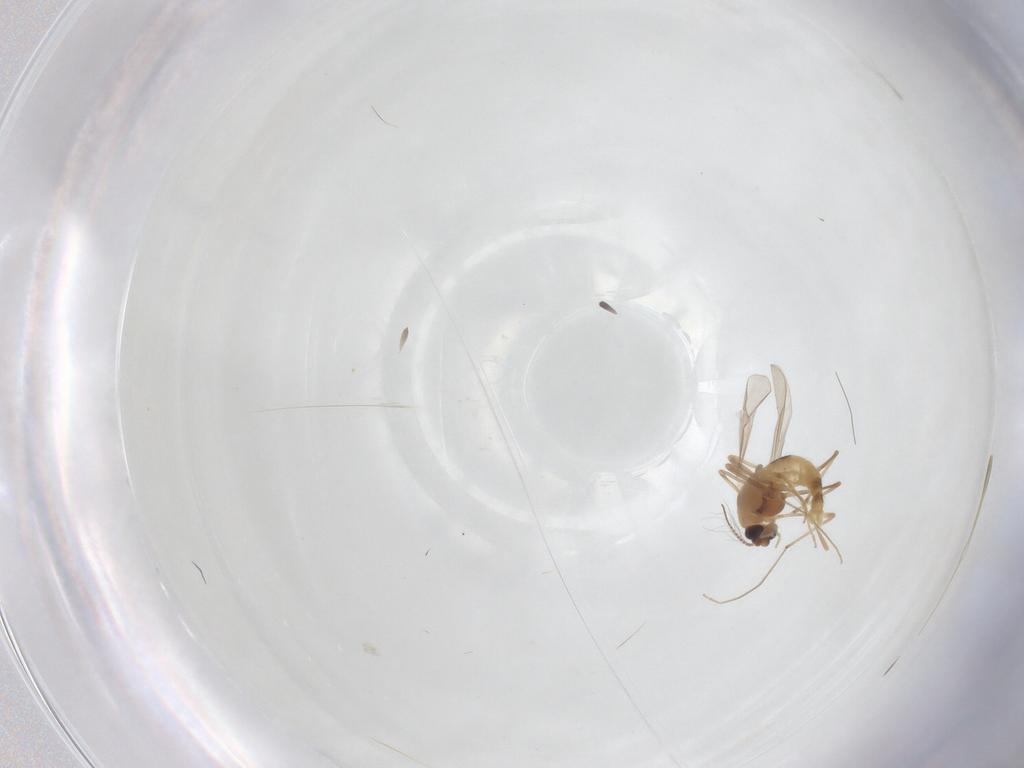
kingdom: Animalia
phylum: Arthropoda
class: Insecta
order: Diptera
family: Chironomidae
